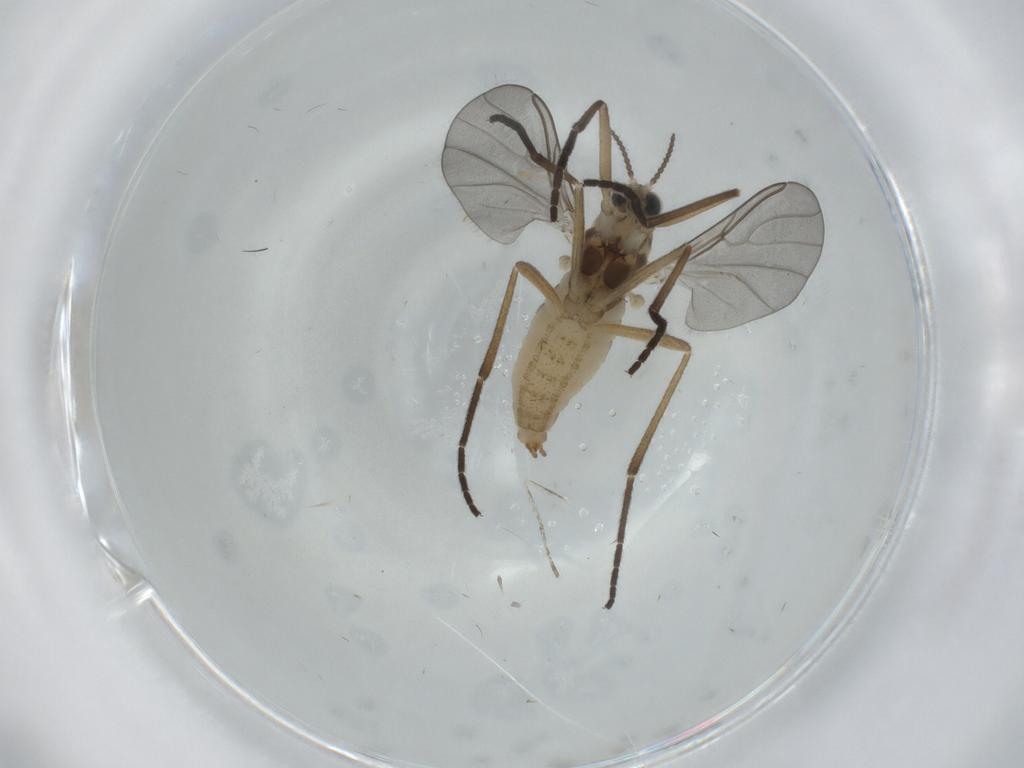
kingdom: Animalia
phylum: Arthropoda
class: Insecta
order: Diptera
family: Cecidomyiidae
